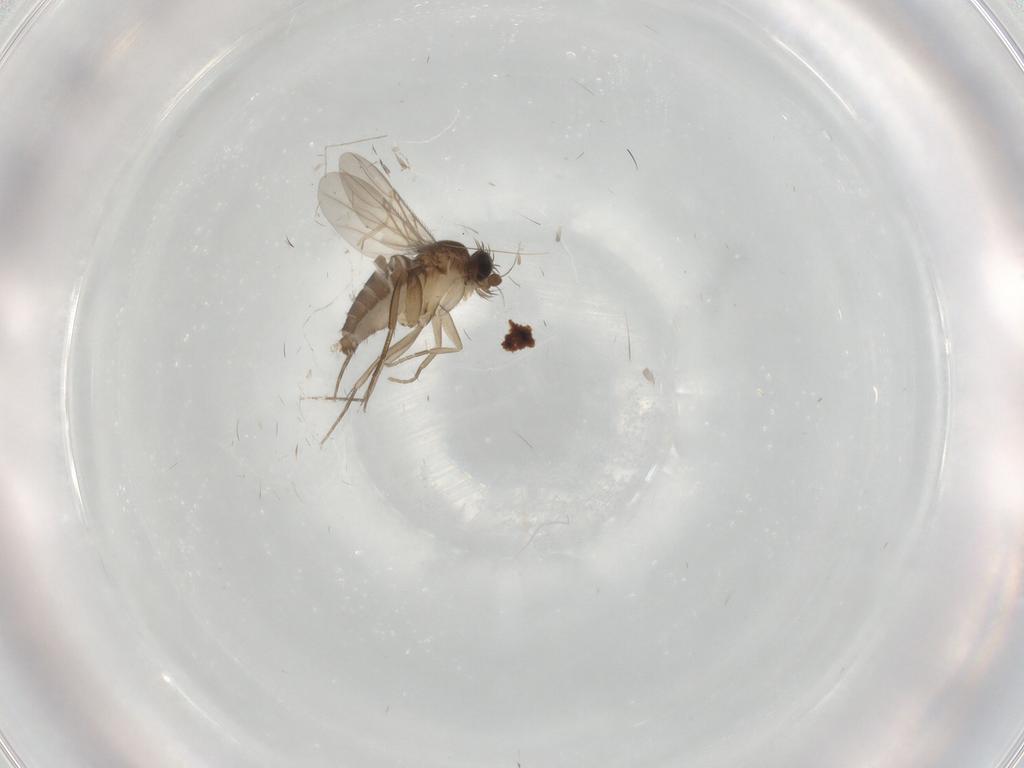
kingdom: Animalia
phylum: Arthropoda
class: Insecta
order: Diptera
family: Phoridae
